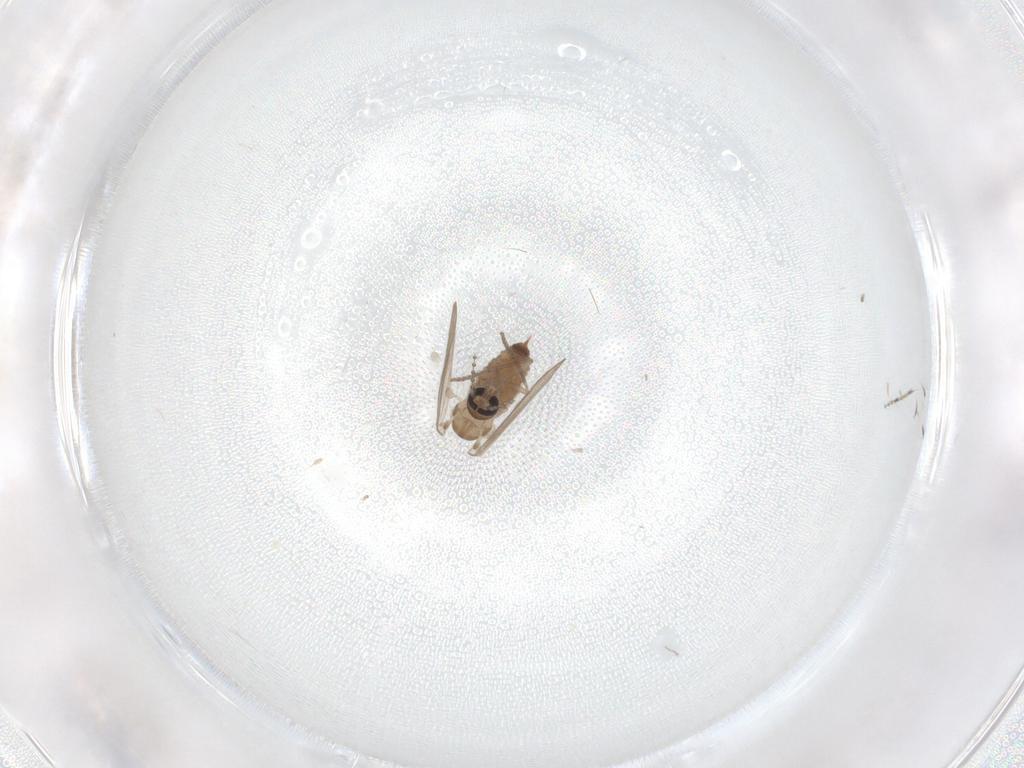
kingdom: Animalia
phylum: Arthropoda
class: Insecta
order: Diptera
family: Psychodidae
